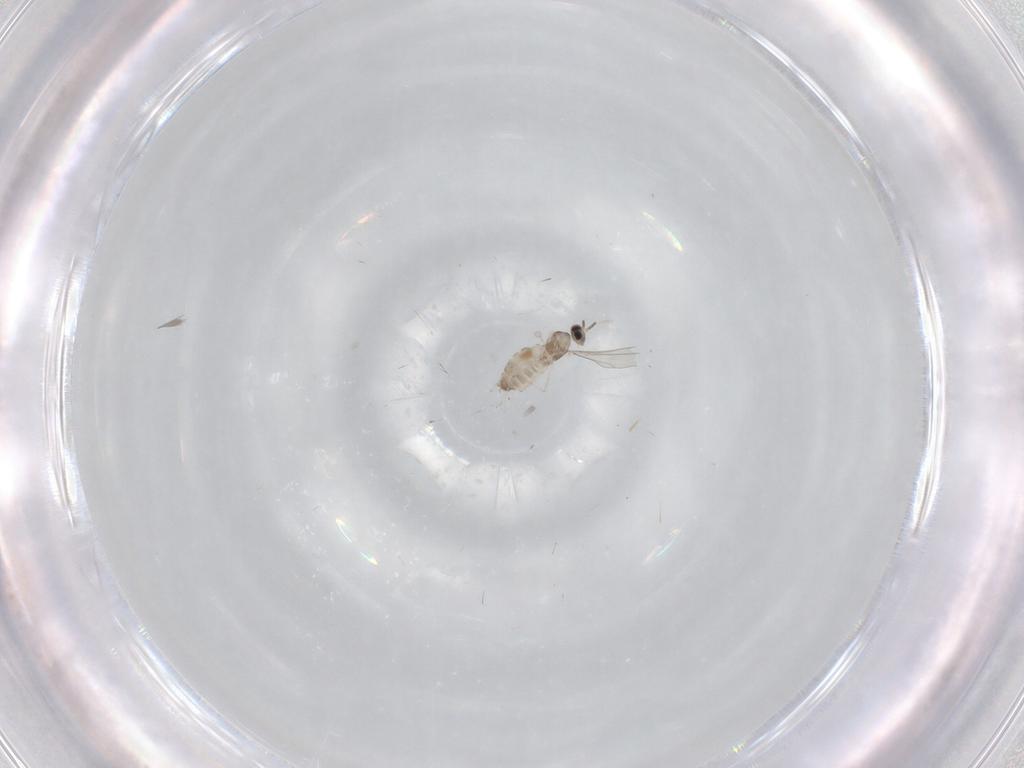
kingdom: Animalia
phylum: Arthropoda
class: Insecta
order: Diptera
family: Cecidomyiidae
